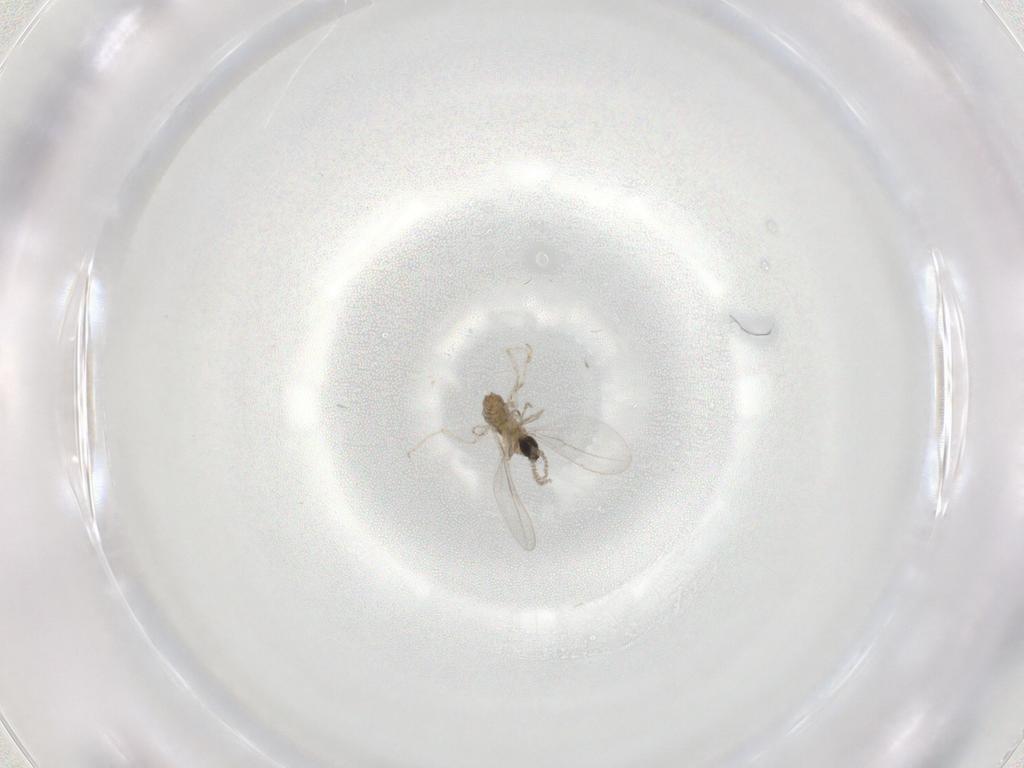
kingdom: Animalia
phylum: Arthropoda
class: Insecta
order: Diptera
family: Cecidomyiidae
